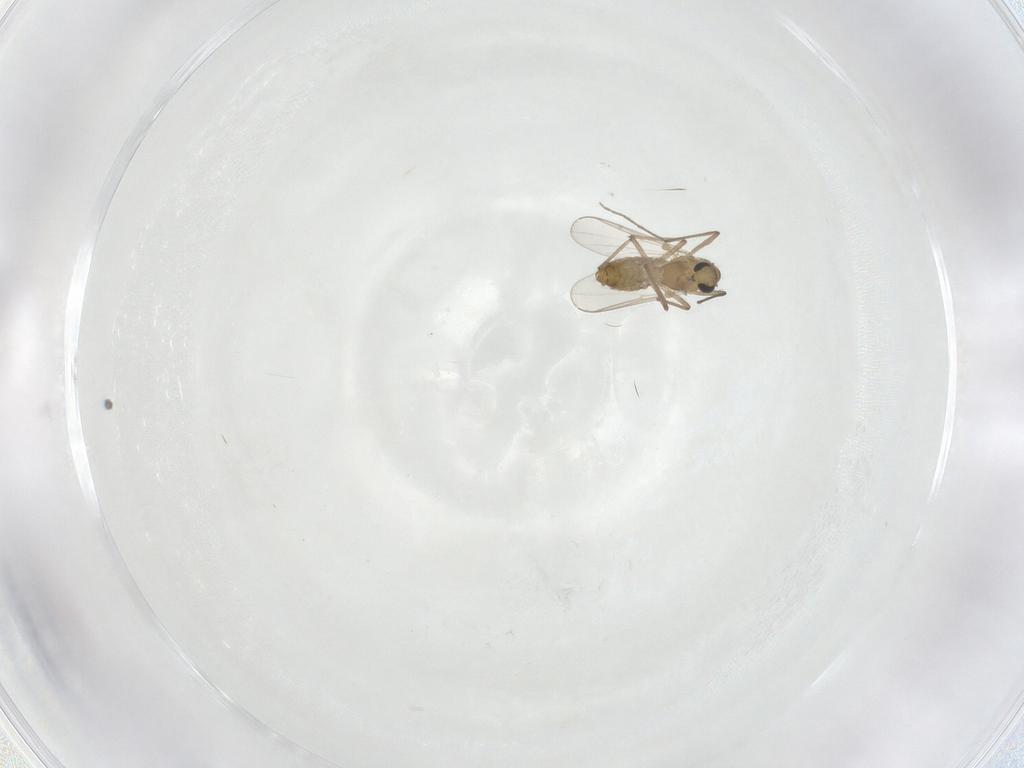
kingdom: Animalia
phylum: Arthropoda
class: Insecta
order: Diptera
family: Chironomidae
